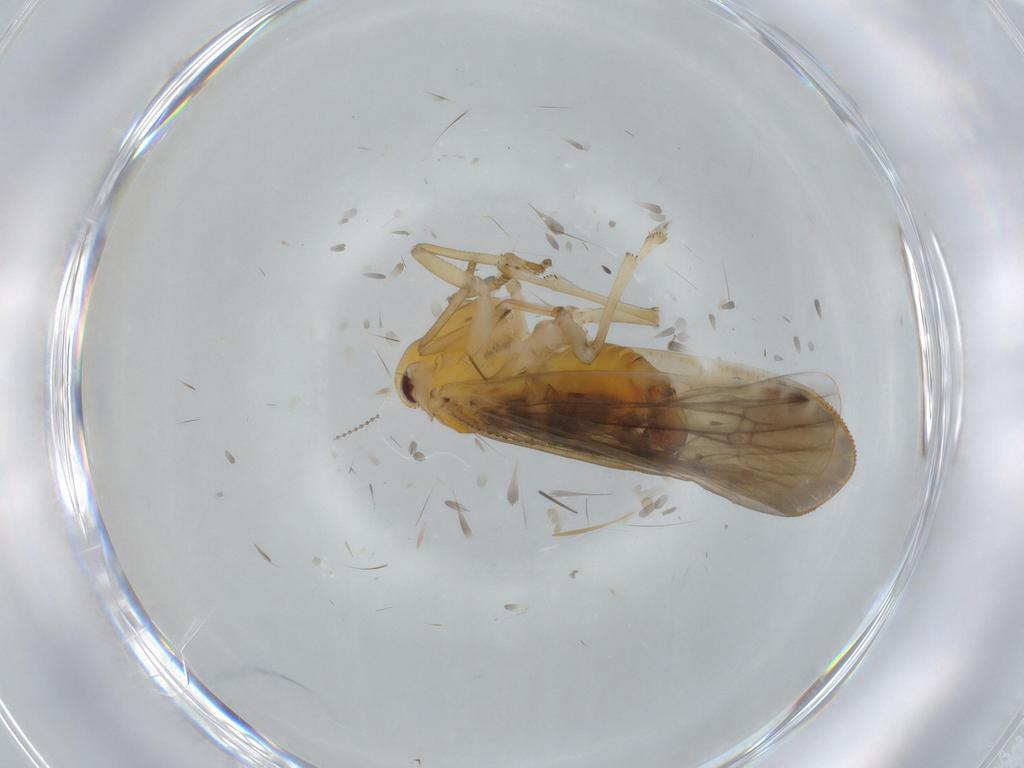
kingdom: Animalia
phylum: Arthropoda
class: Insecta
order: Hemiptera
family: Derbidae
